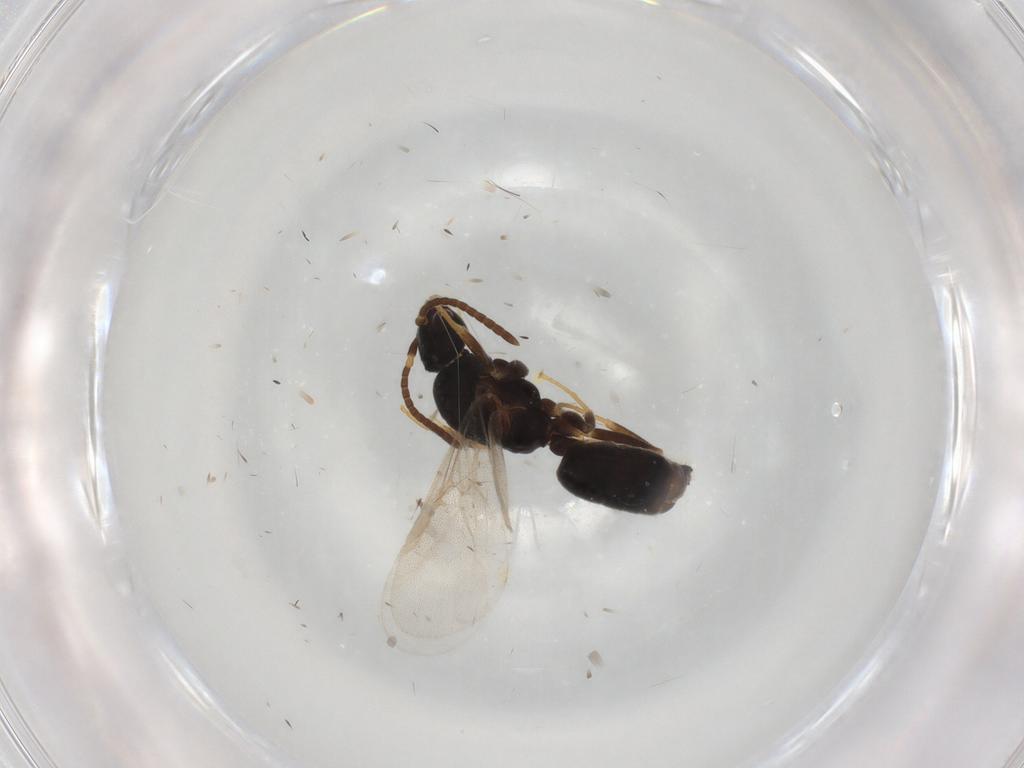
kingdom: Animalia
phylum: Arthropoda
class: Insecta
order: Hymenoptera
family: Formicidae
